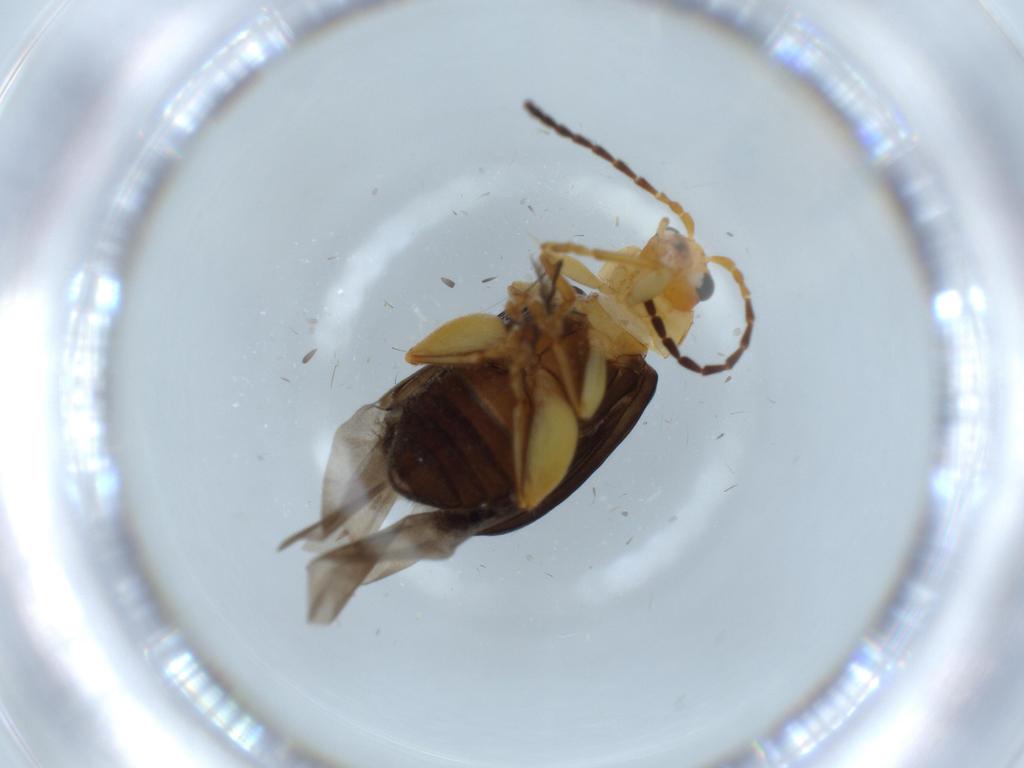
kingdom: Animalia
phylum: Arthropoda
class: Insecta
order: Coleoptera
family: Chrysomelidae
